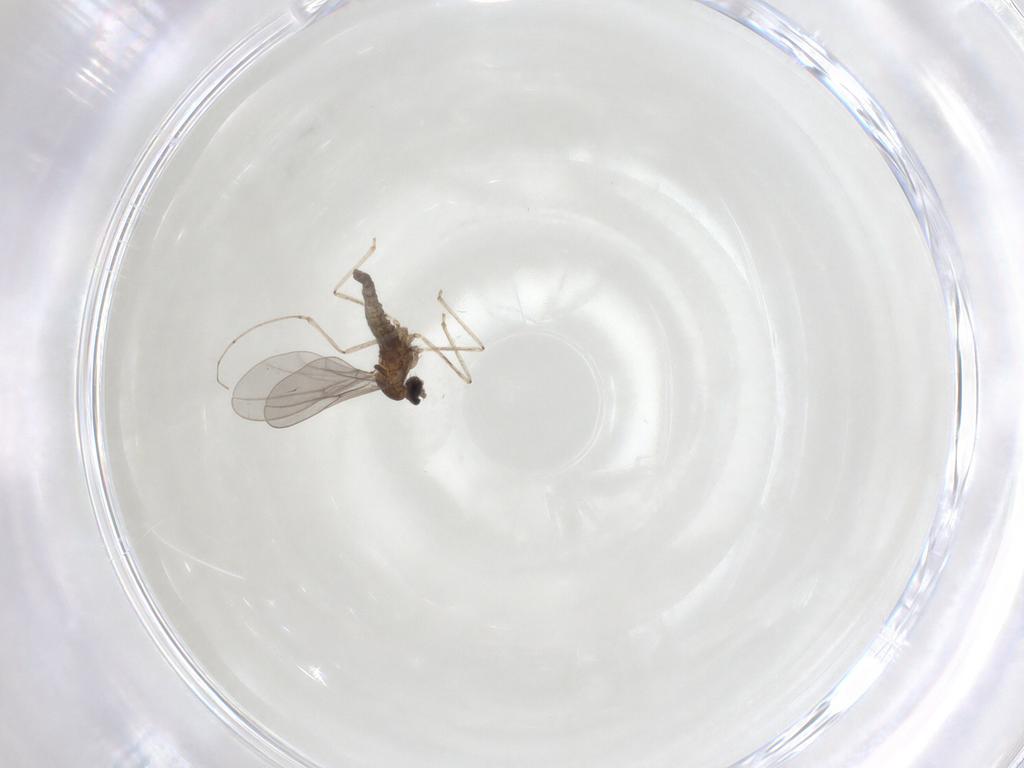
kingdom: Animalia
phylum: Arthropoda
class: Insecta
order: Diptera
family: Cecidomyiidae
